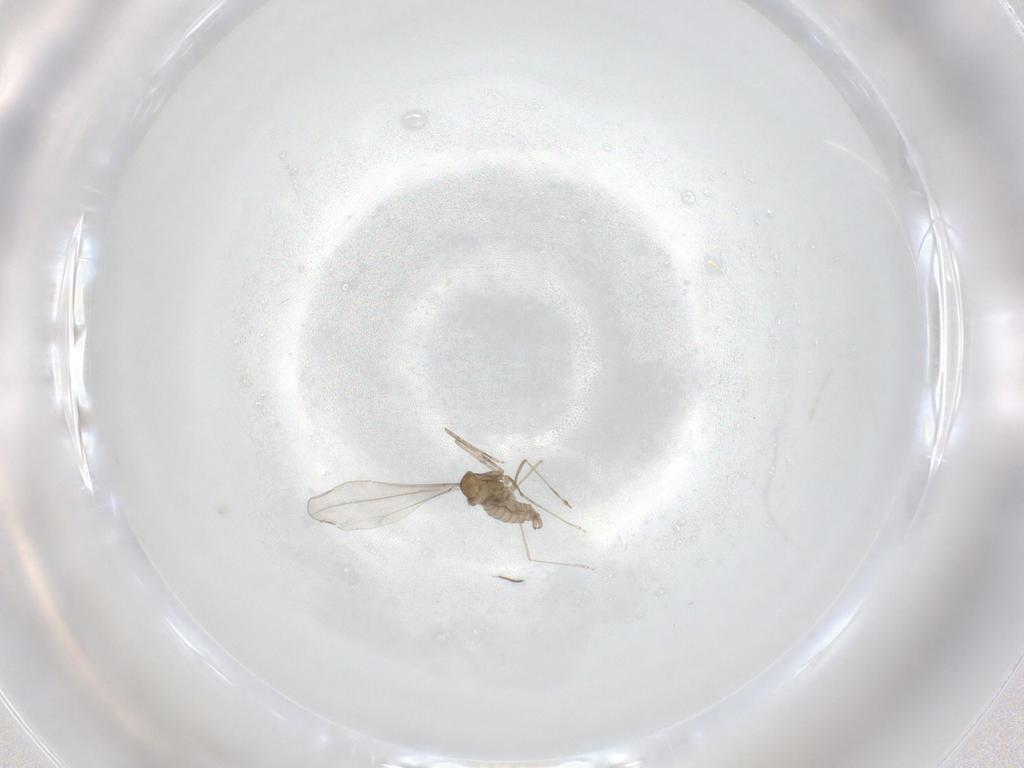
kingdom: Animalia
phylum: Arthropoda
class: Insecta
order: Diptera
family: Cecidomyiidae
